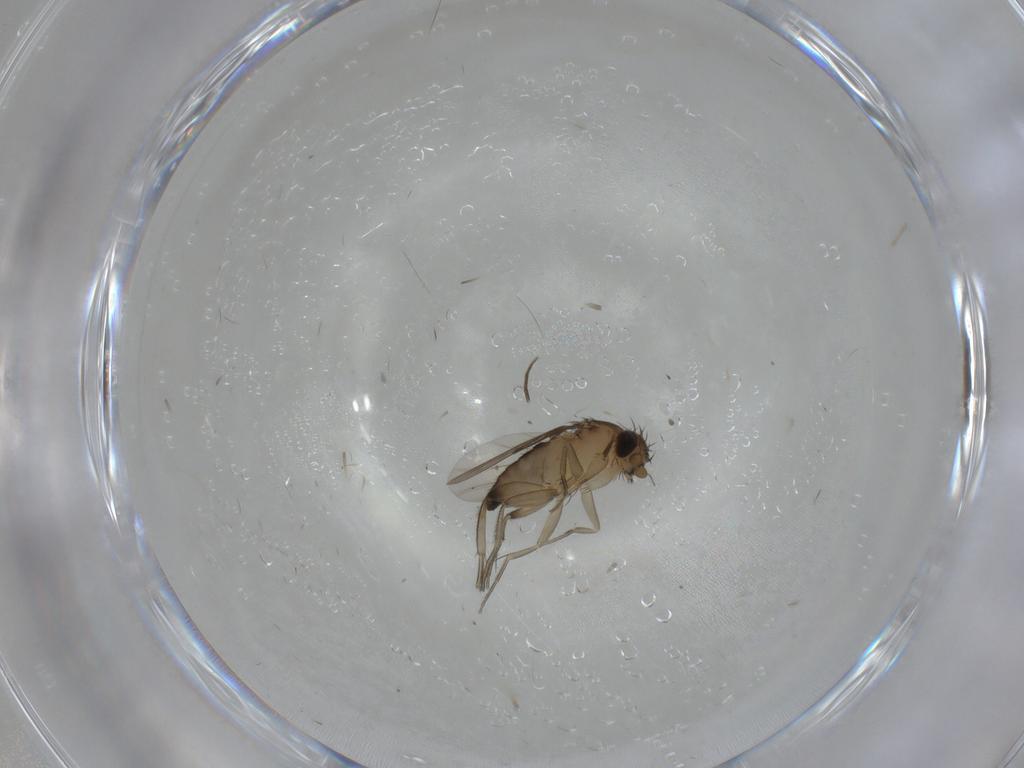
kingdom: Animalia
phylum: Arthropoda
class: Insecta
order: Diptera
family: Phoridae
